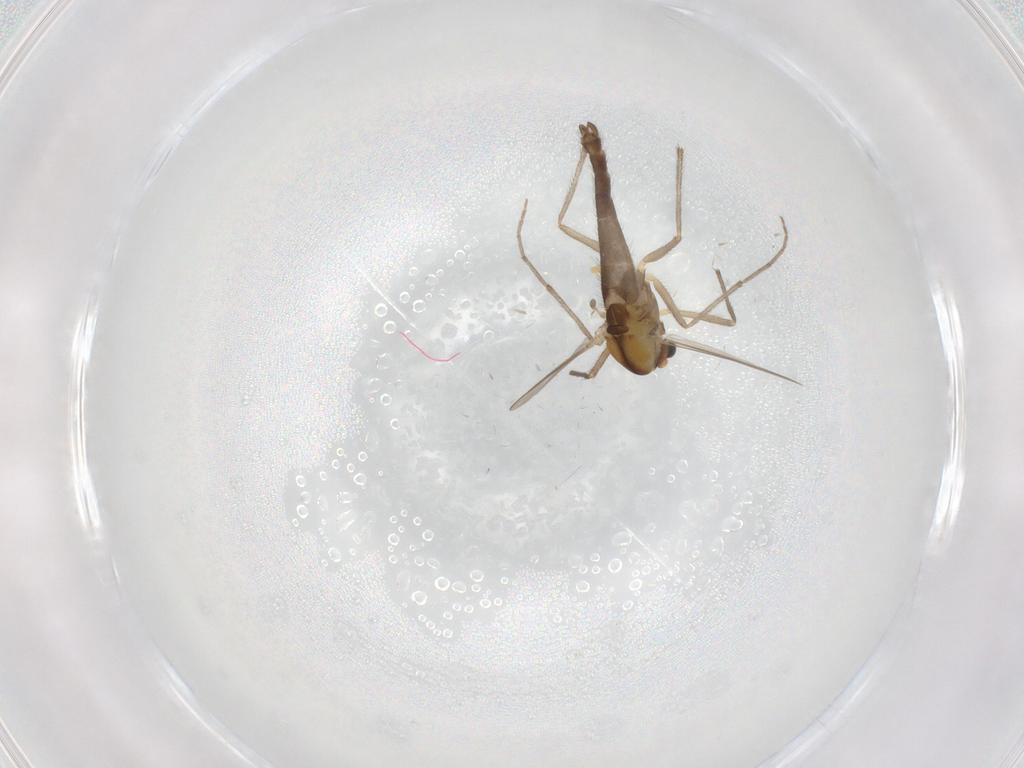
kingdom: Animalia
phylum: Arthropoda
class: Insecta
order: Diptera
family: Chironomidae
